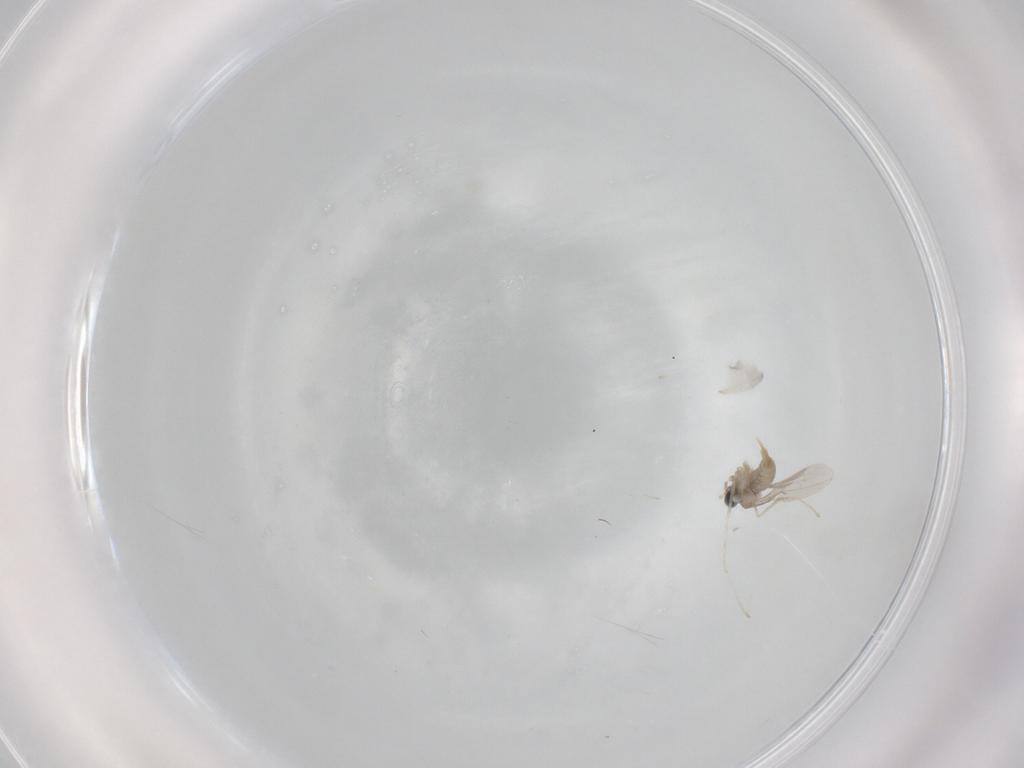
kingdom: Animalia
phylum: Arthropoda
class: Insecta
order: Diptera
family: Cecidomyiidae
